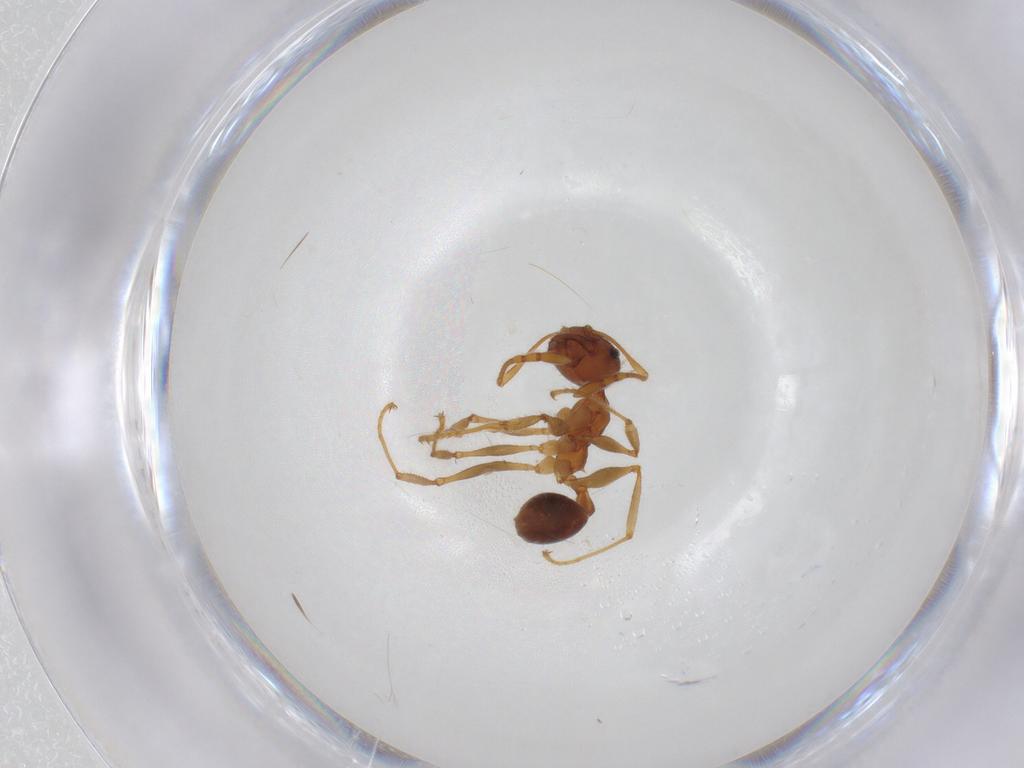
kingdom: Animalia
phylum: Arthropoda
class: Insecta
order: Hymenoptera
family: Formicidae
